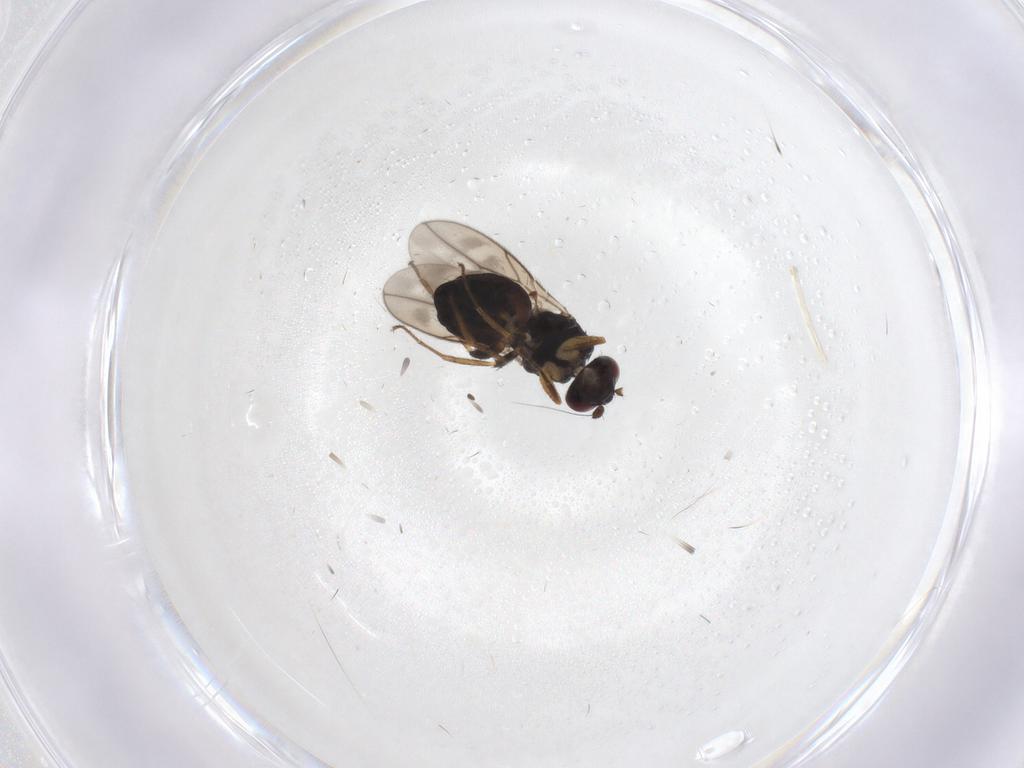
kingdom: Animalia
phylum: Arthropoda
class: Insecta
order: Diptera
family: Sphaeroceridae
